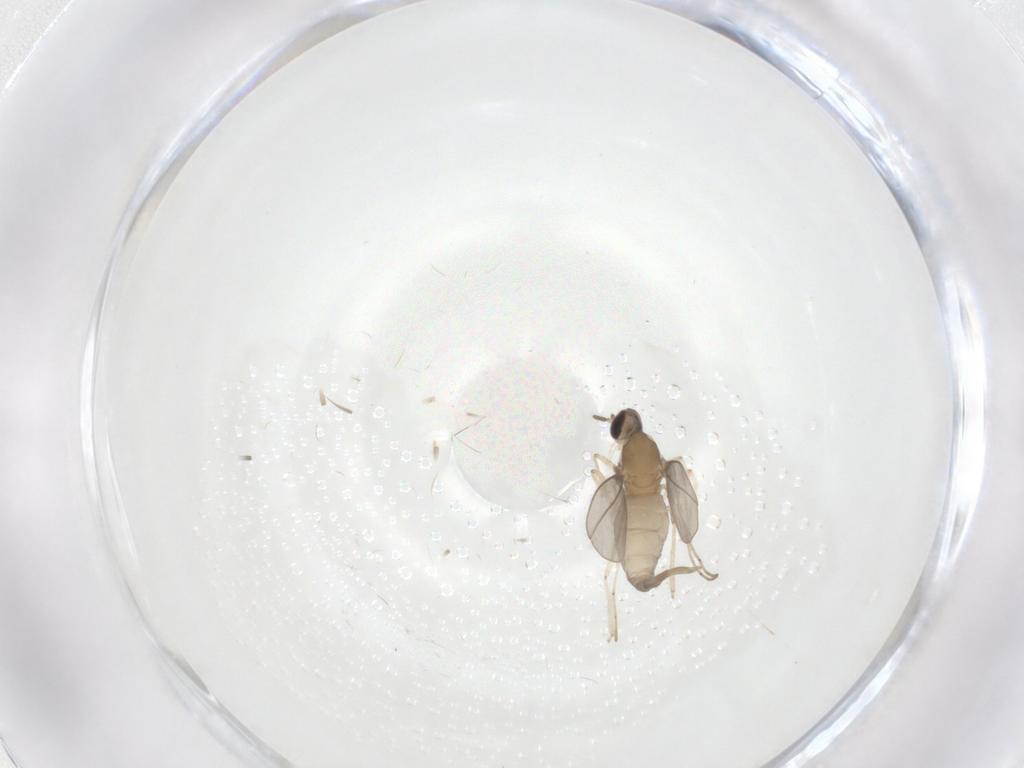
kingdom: Animalia
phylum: Arthropoda
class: Insecta
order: Diptera
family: Cecidomyiidae
